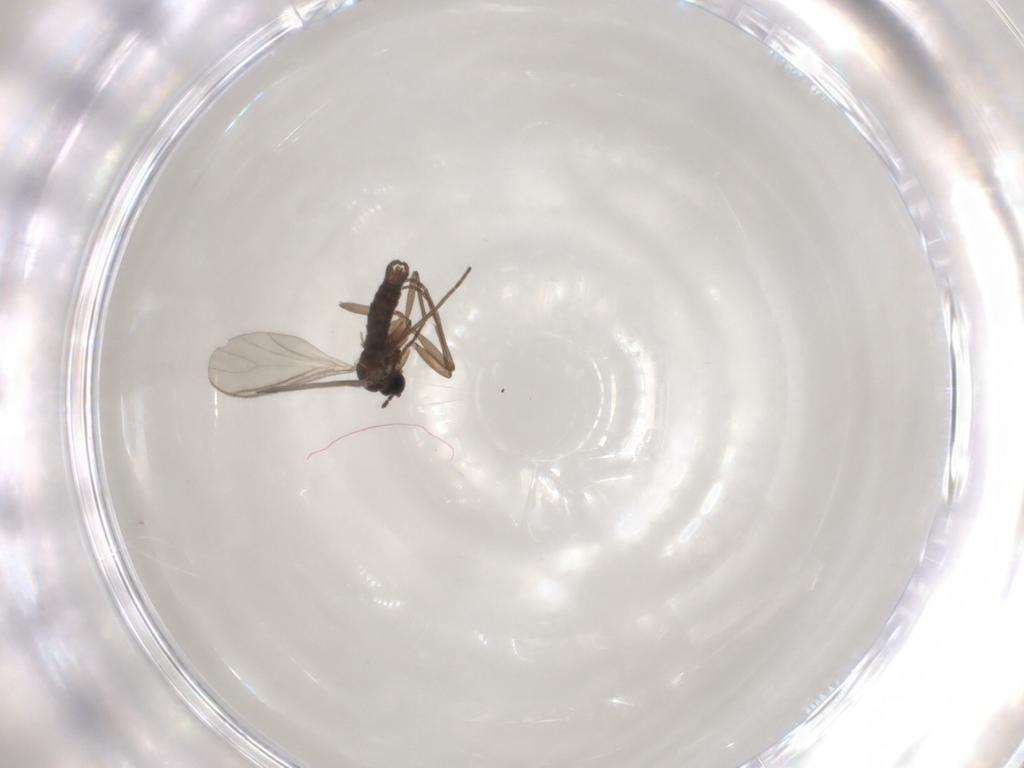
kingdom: Animalia
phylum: Arthropoda
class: Insecta
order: Diptera
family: Sciaridae
